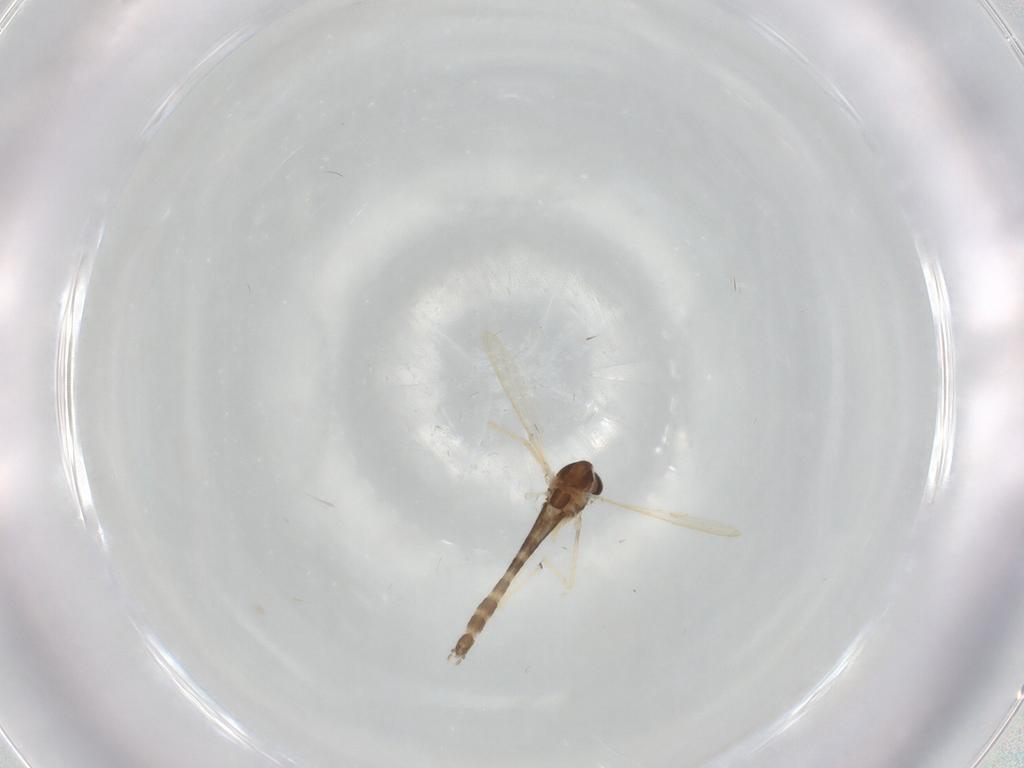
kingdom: Animalia
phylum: Arthropoda
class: Insecta
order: Diptera
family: Chironomidae
